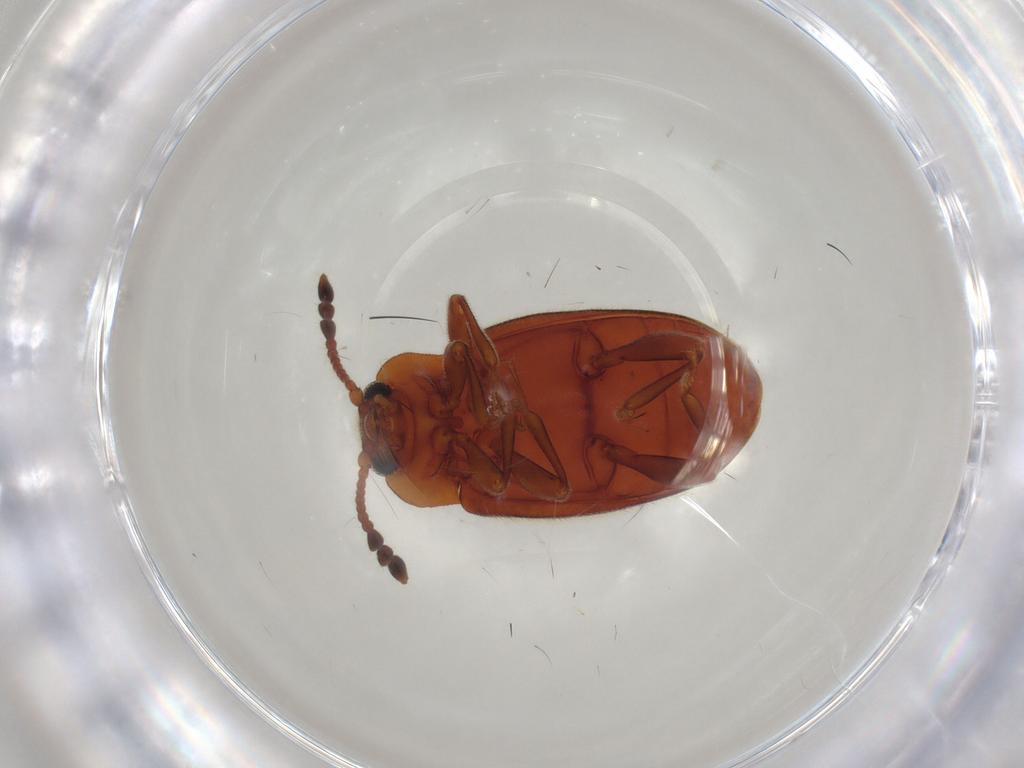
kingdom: Animalia
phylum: Arthropoda
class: Insecta
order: Coleoptera
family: Endomychidae
